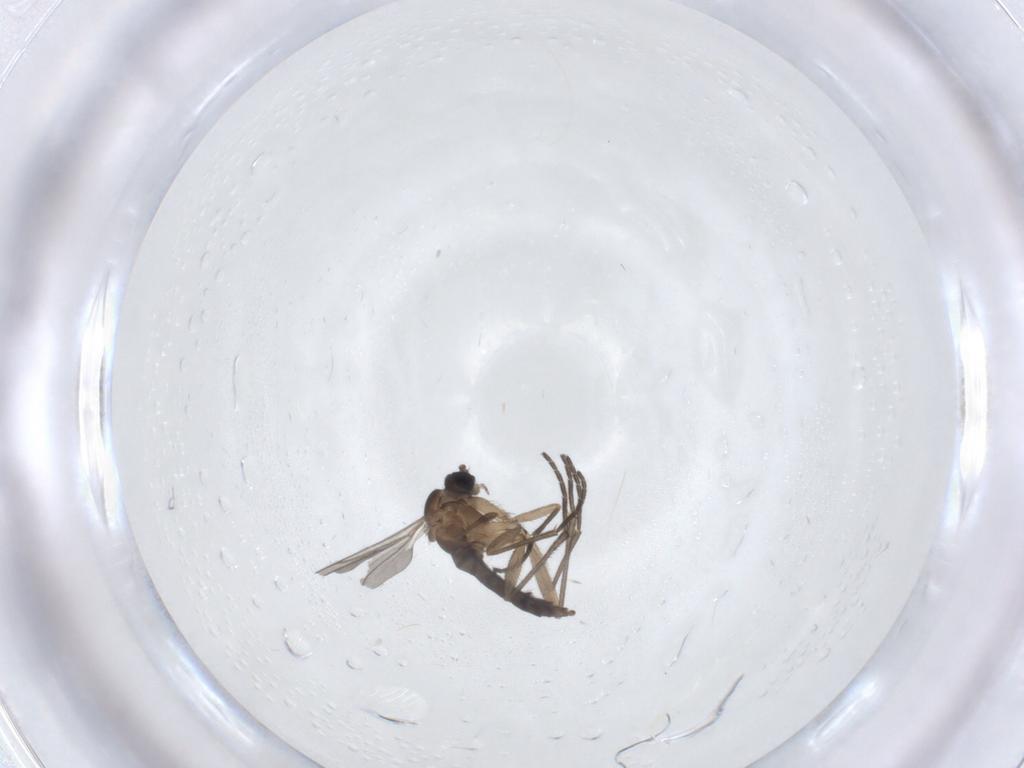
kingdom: Animalia
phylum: Arthropoda
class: Insecta
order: Diptera
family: Sciaridae
